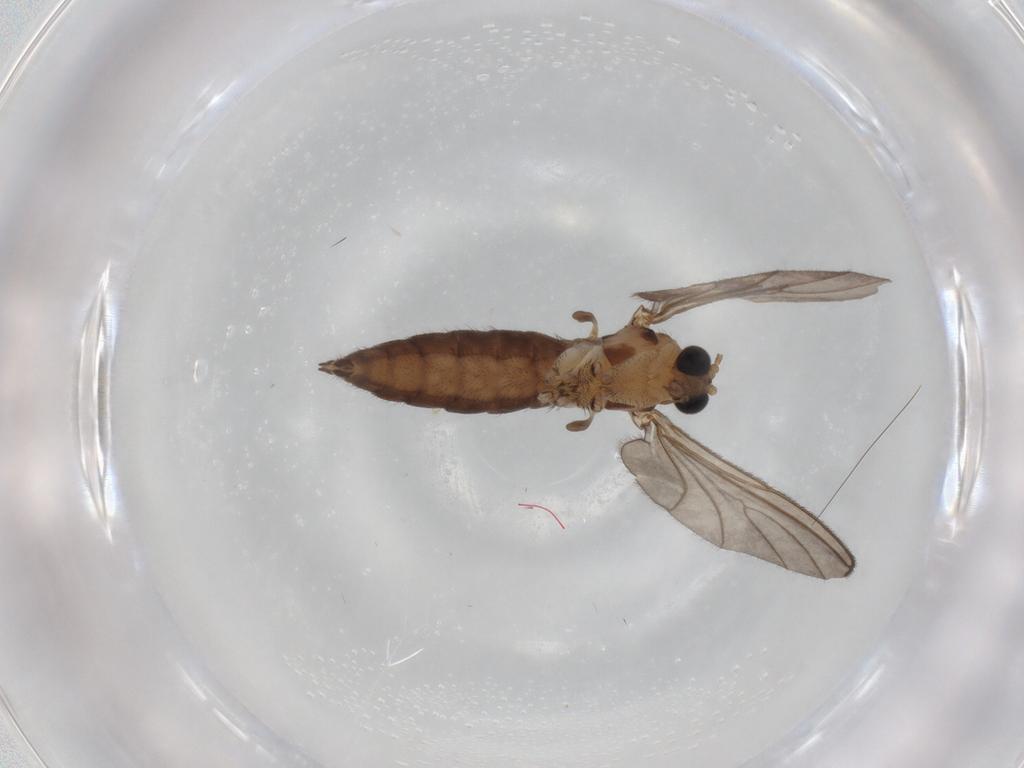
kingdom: Animalia
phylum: Arthropoda
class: Insecta
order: Diptera
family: Sciaridae
